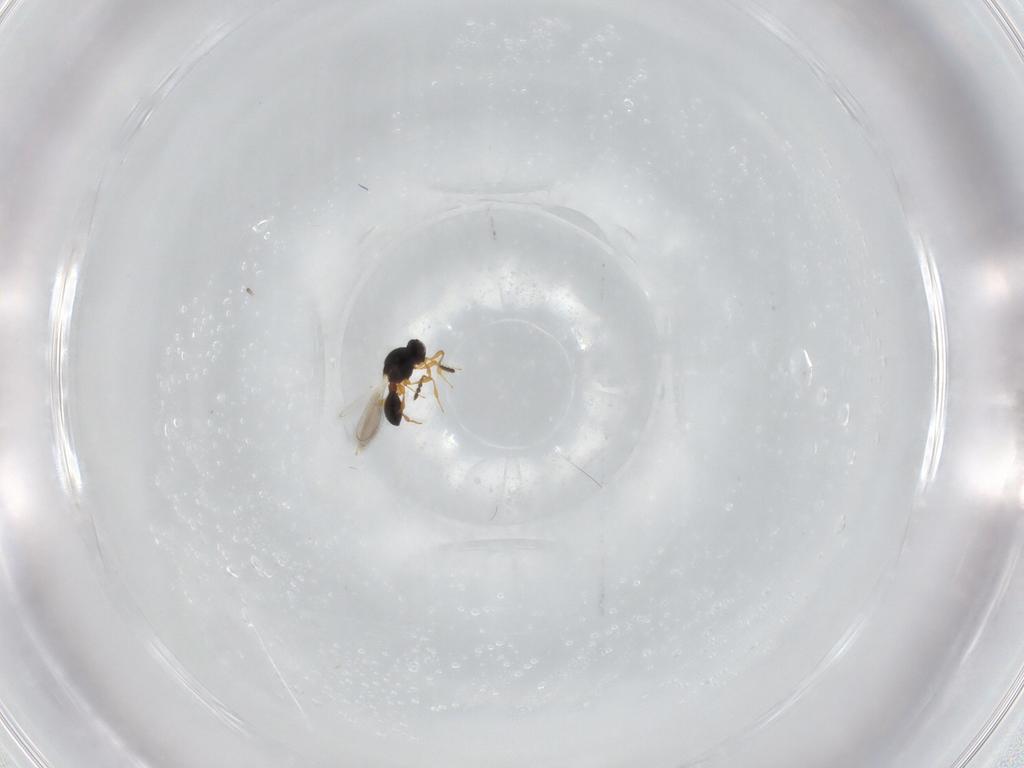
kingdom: Animalia
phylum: Arthropoda
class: Insecta
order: Hymenoptera
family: Platygastridae
